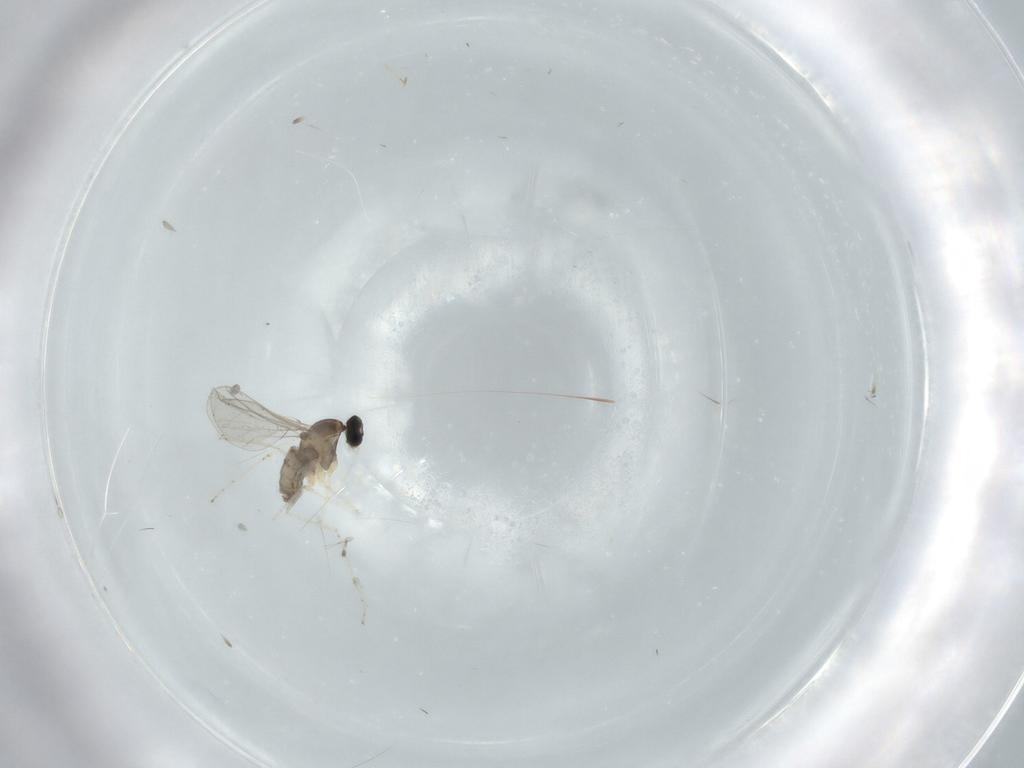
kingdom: Animalia
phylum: Arthropoda
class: Insecta
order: Diptera
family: Cecidomyiidae
